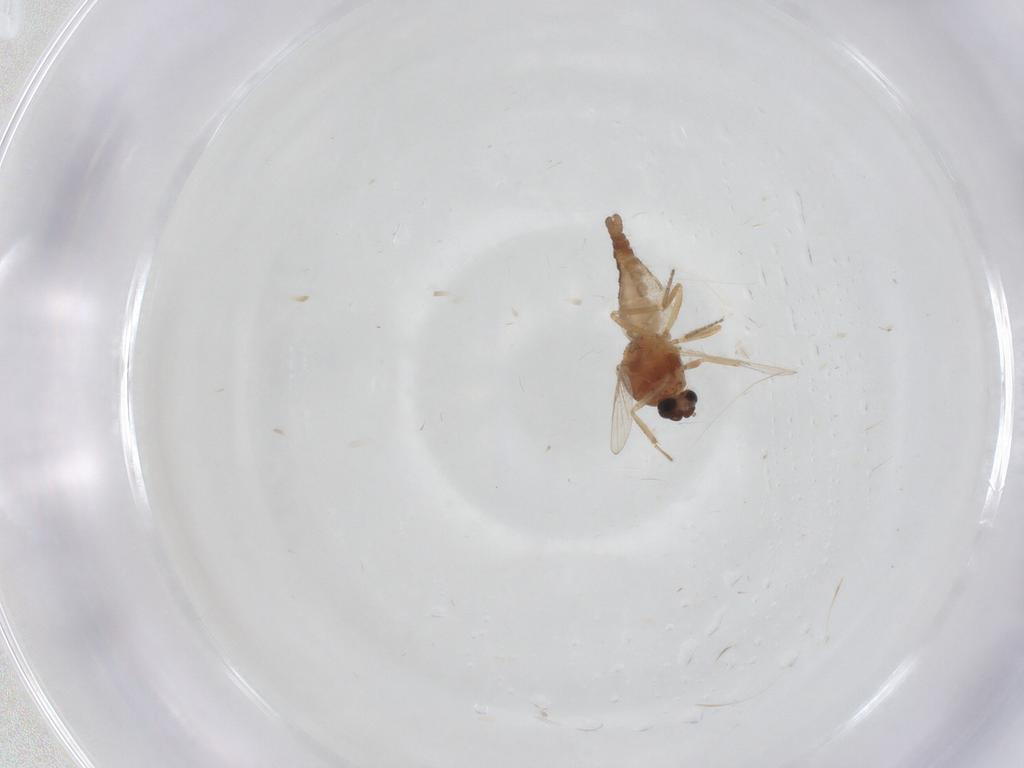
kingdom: Animalia
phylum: Arthropoda
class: Insecta
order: Diptera
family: Ceratopogonidae
